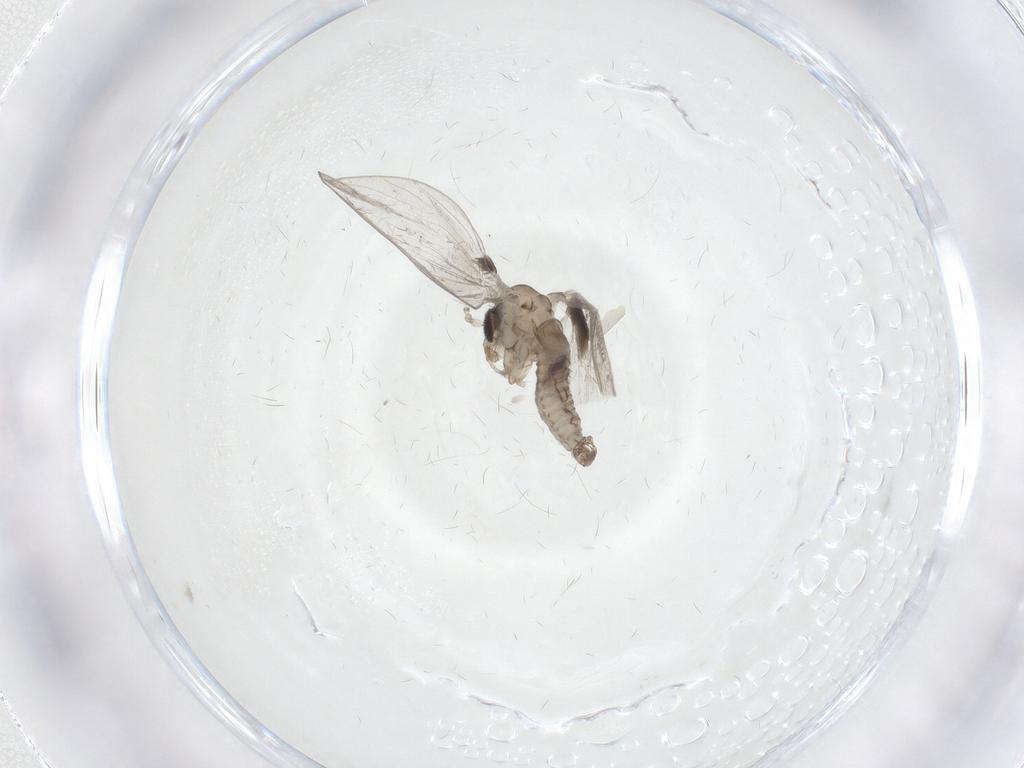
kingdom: Animalia
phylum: Arthropoda
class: Insecta
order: Diptera
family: Ceratopogonidae
